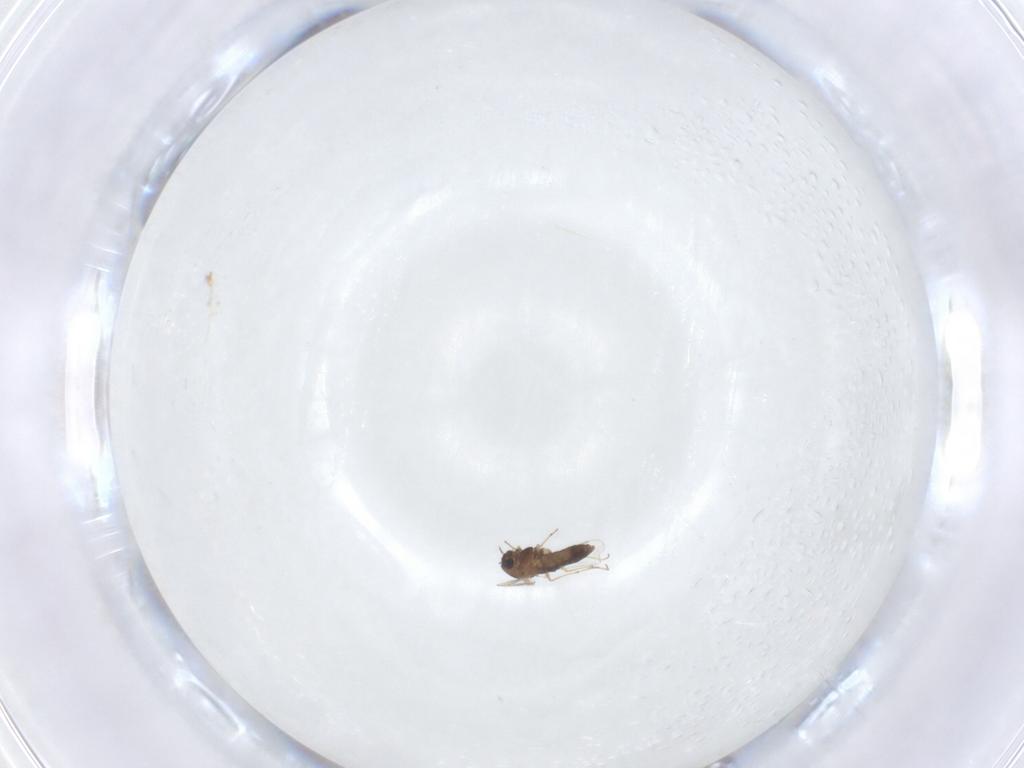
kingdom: Animalia
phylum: Arthropoda
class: Insecta
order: Diptera
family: Chironomidae
